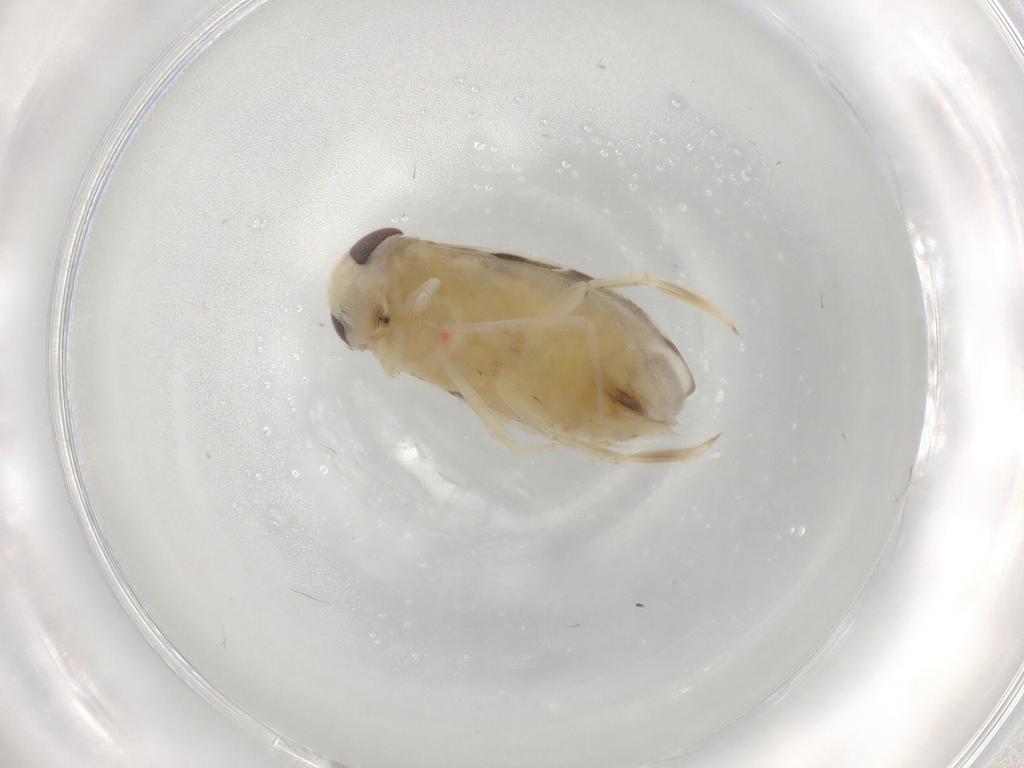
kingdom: Animalia
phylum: Arthropoda
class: Insecta
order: Hemiptera
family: Corixidae
